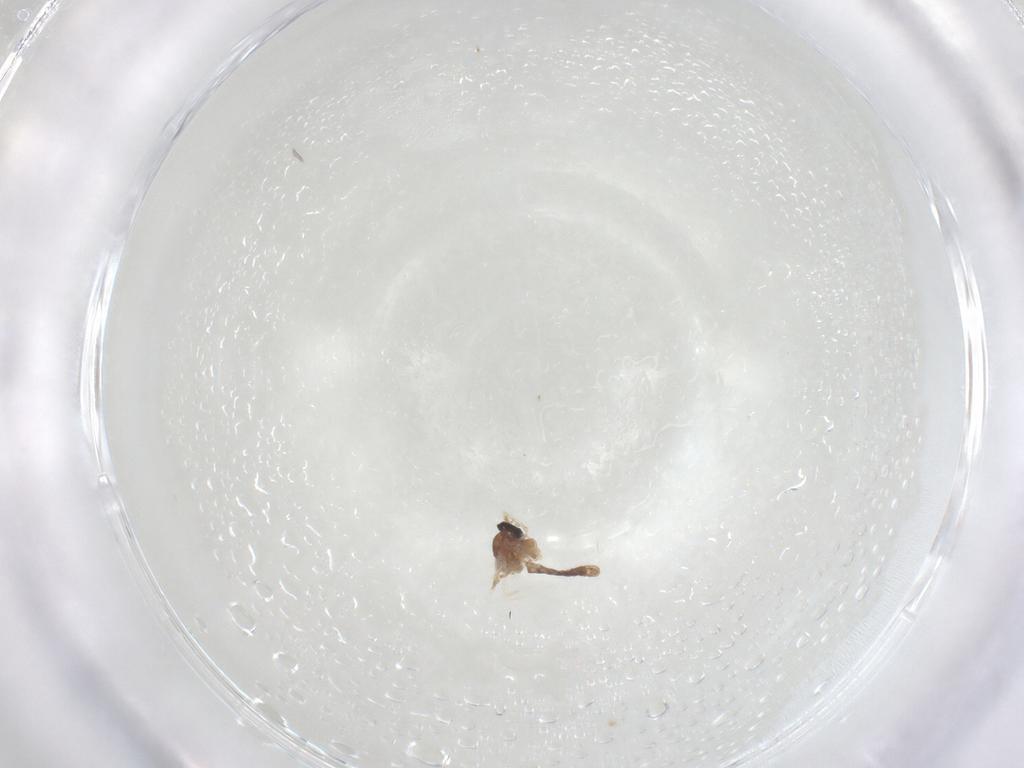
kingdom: Animalia
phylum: Arthropoda
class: Insecta
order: Diptera
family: Ceratopogonidae
